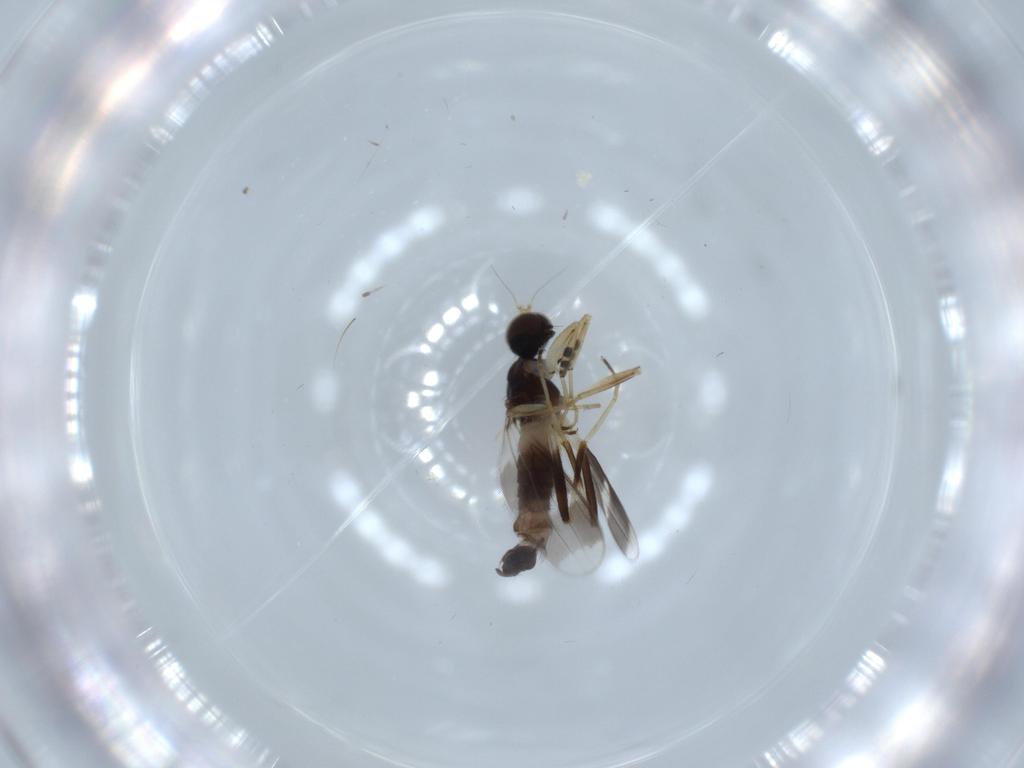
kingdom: Animalia
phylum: Arthropoda
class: Insecta
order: Diptera
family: Hybotidae
